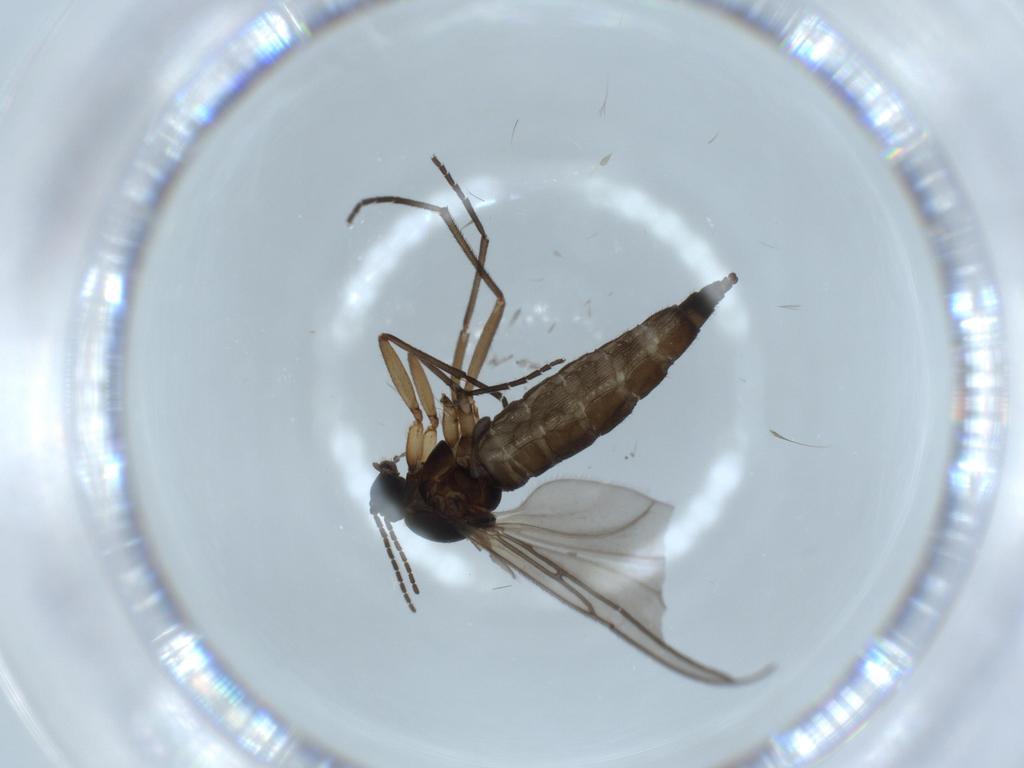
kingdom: Animalia
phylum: Arthropoda
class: Insecta
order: Diptera
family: Sciaridae
